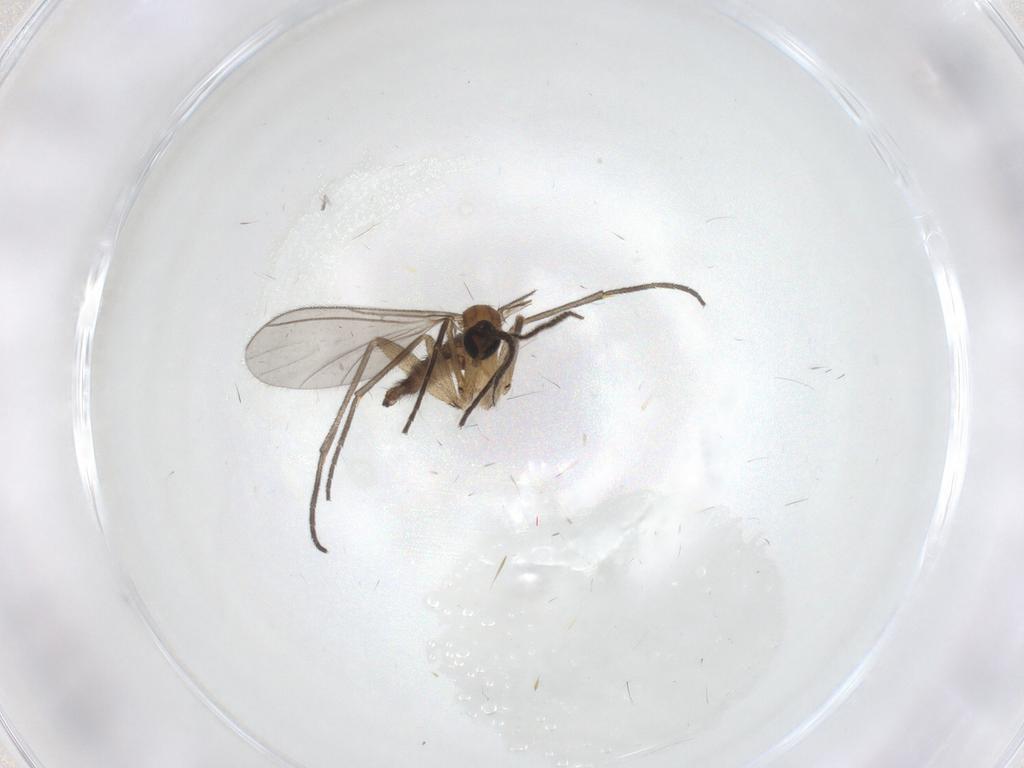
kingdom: Animalia
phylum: Arthropoda
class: Insecta
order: Diptera
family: Sciaridae
